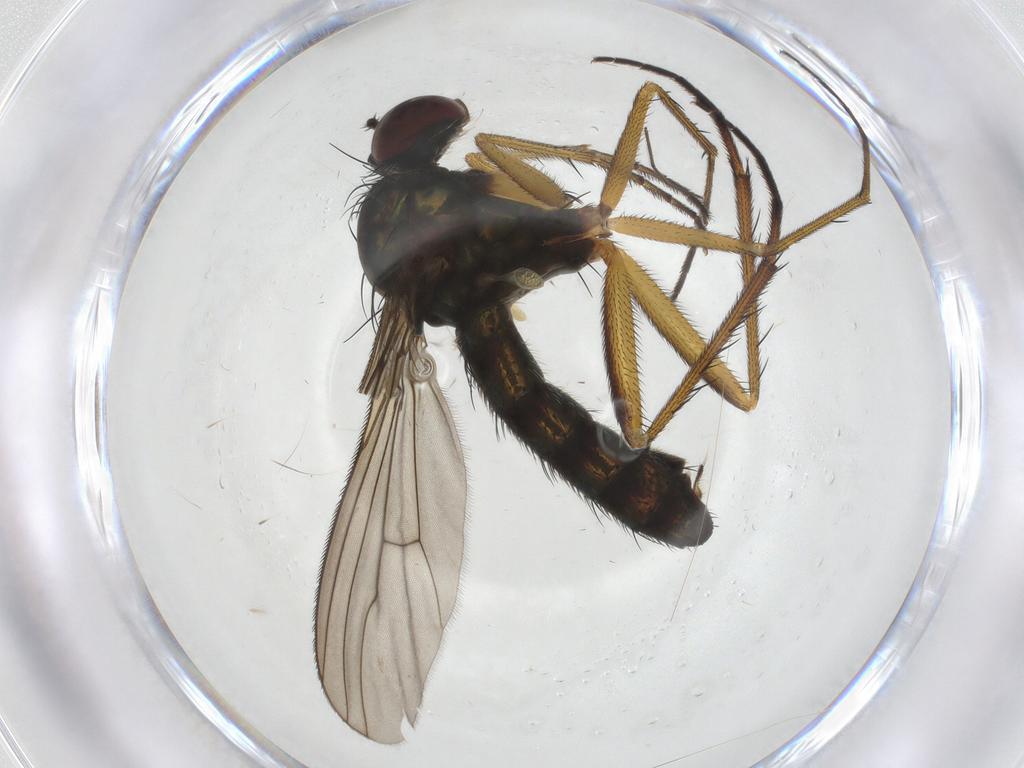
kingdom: Animalia
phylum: Arthropoda
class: Insecta
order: Diptera
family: Dolichopodidae
